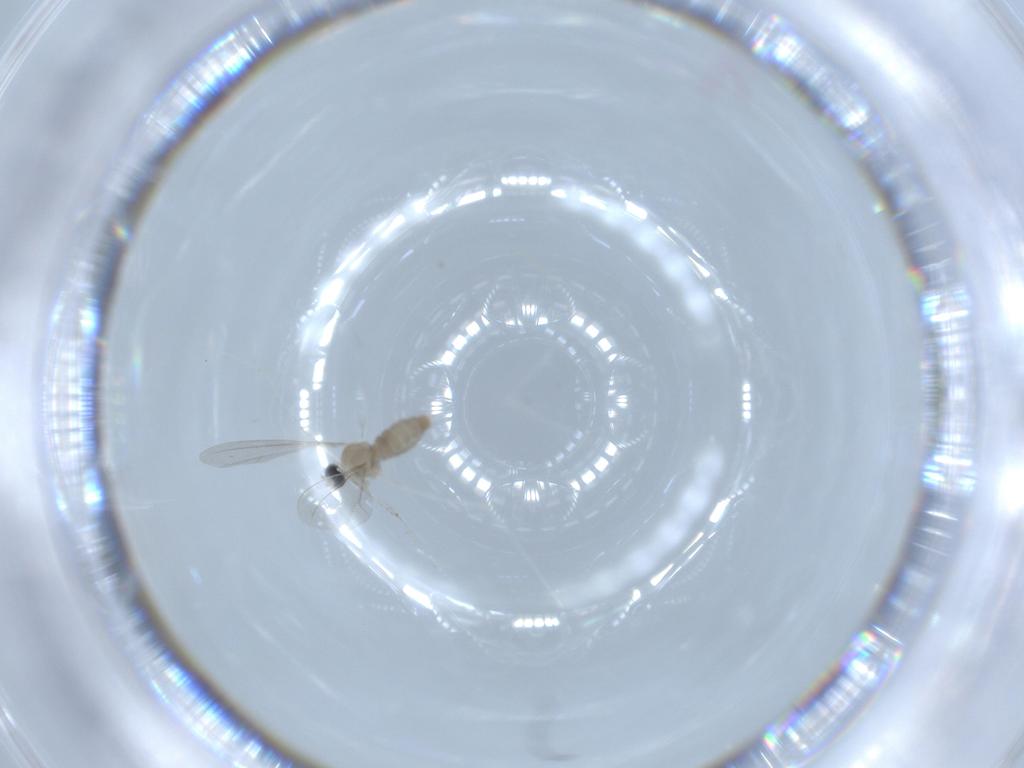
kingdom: Animalia
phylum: Arthropoda
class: Insecta
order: Diptera
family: Cecidomyiidae
